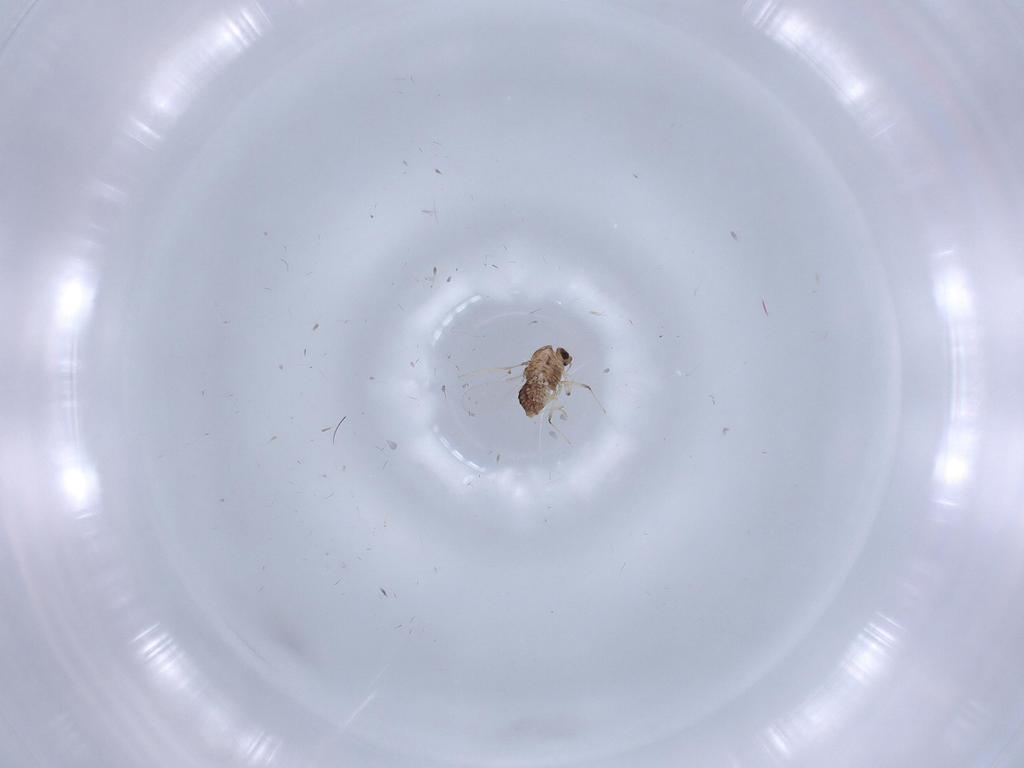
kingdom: Animalia
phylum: Arthropoda
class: Insecta
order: Diptera
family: Chironomidae
